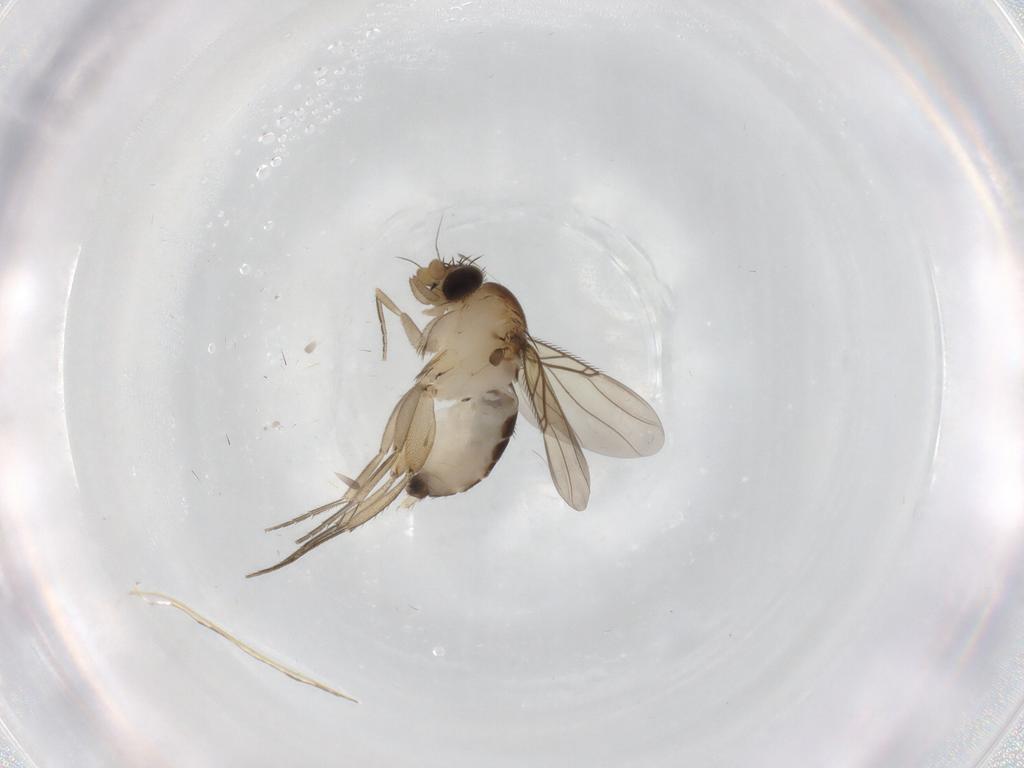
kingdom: Animalia
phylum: Arthropoda
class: Insecta
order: Diptera
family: Phoridae
